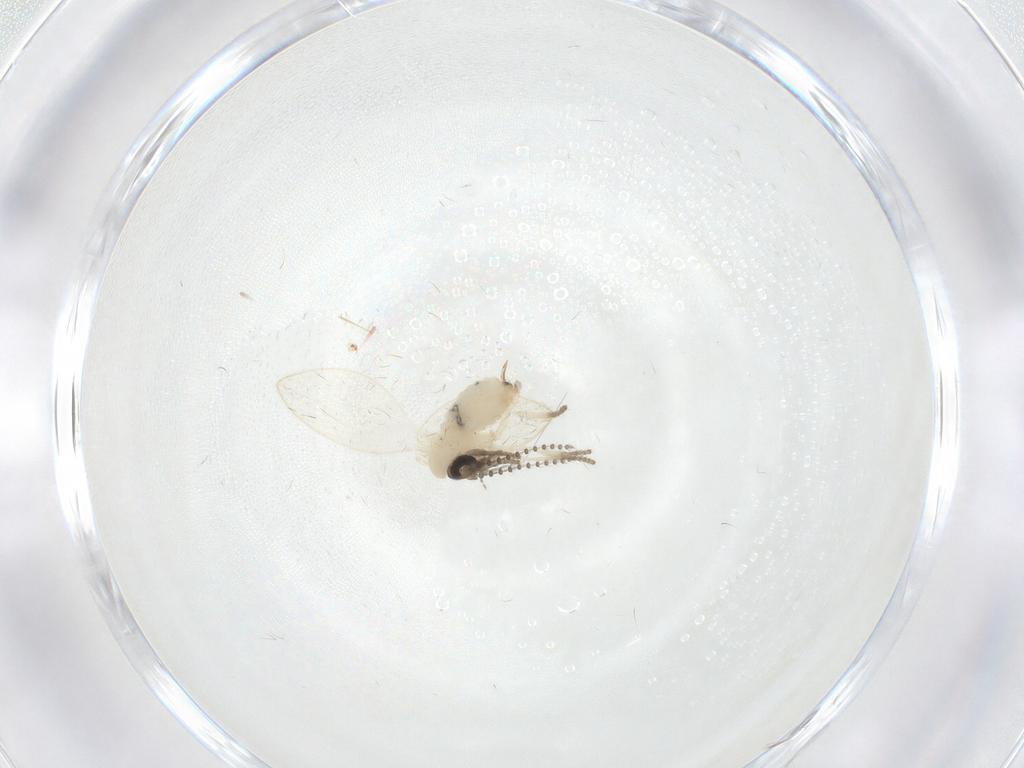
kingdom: Animalia
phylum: Arthropoda
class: Insecta
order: Diptera
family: Psychodidae
